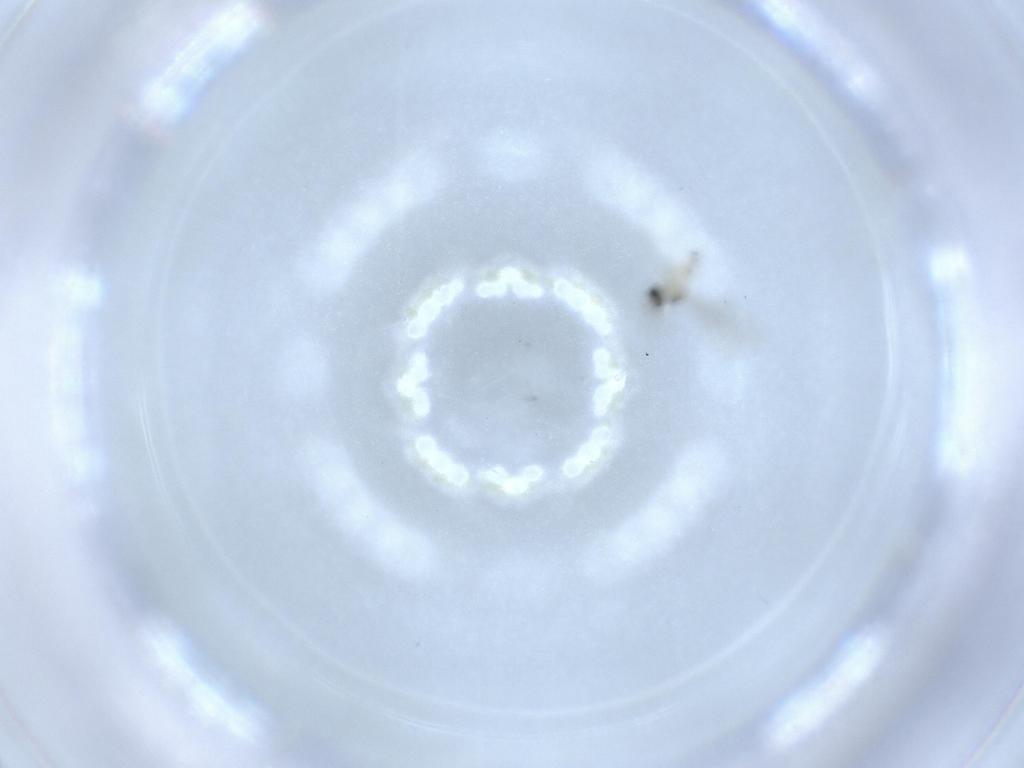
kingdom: Animalia
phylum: Arthropoda
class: Insecta
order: Diptera
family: Cecidomyiidae
